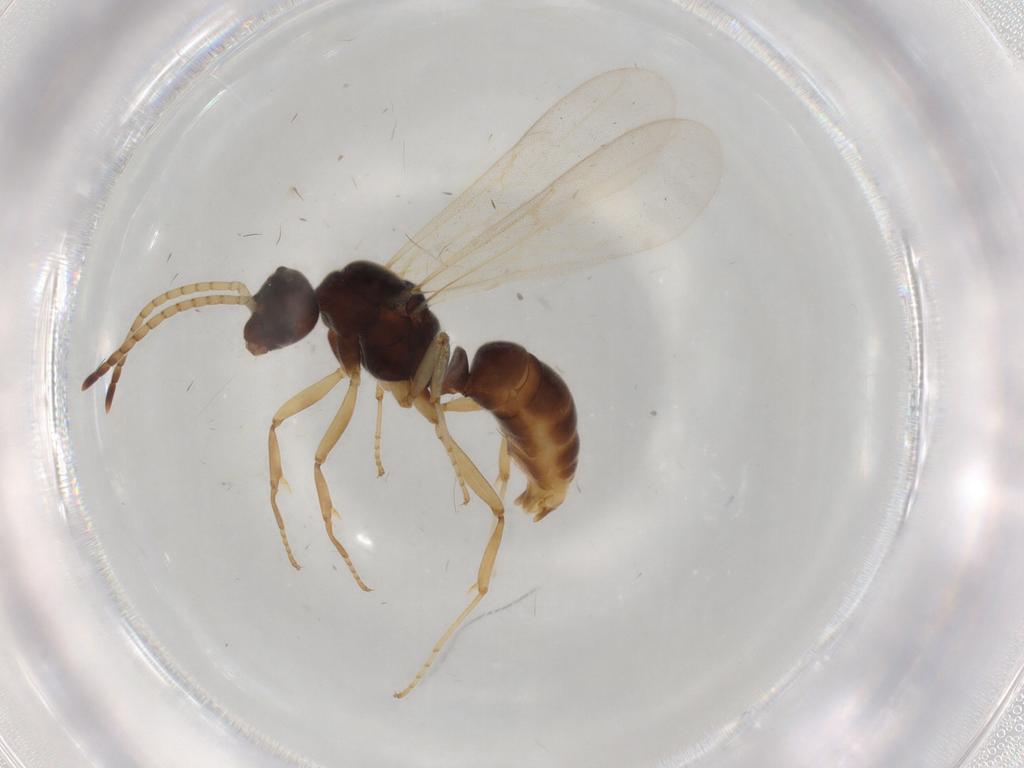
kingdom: Animalia
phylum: Arthropoda
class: Insecta
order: Hymenoptera
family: Formicidae
